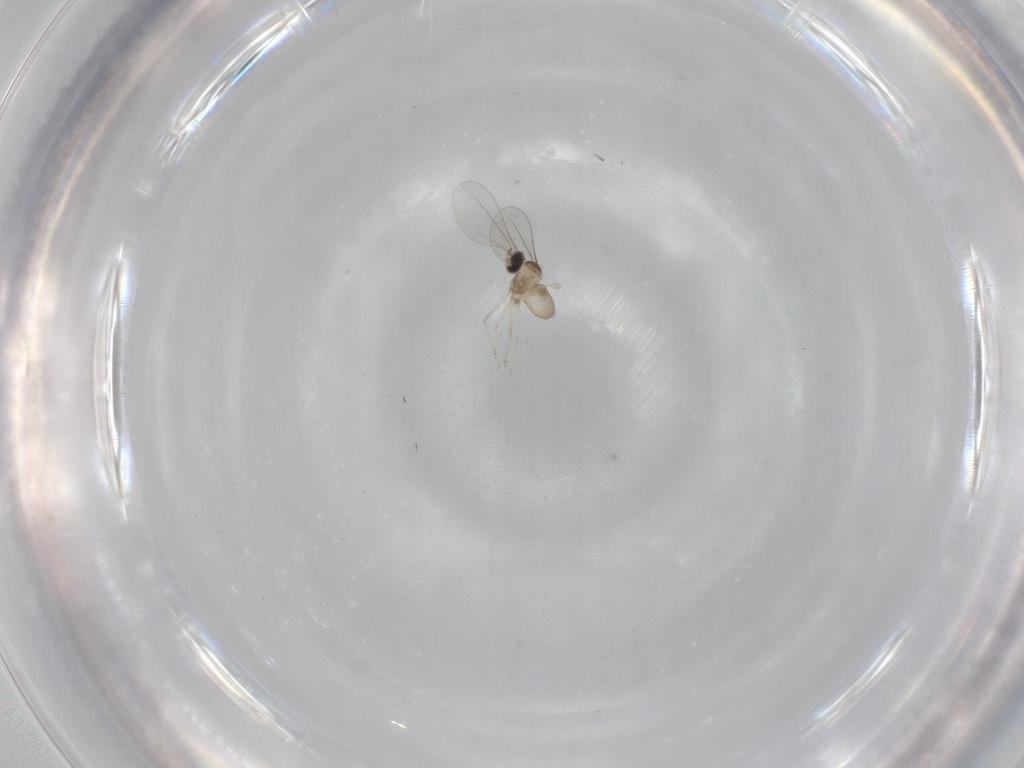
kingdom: Animalia
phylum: Arthropoda
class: Insecta
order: Diptera
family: Cecidomyiidae
